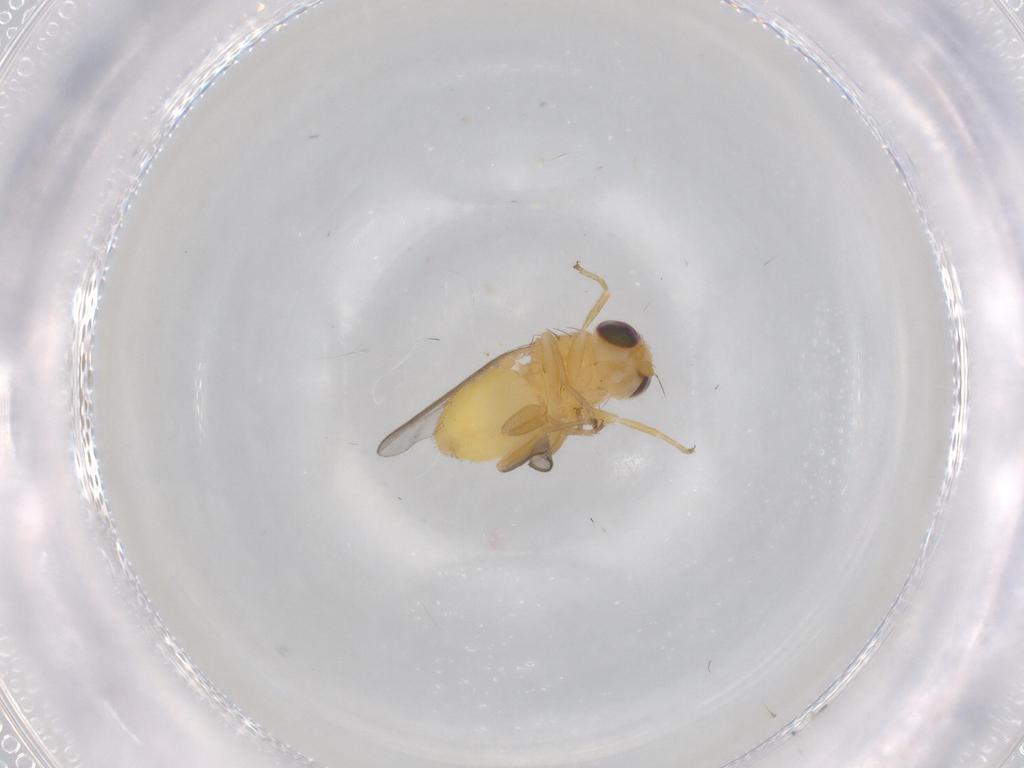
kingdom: Animalia
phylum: Arthropoda
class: Insecta
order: Diptera
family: Chloropidae
